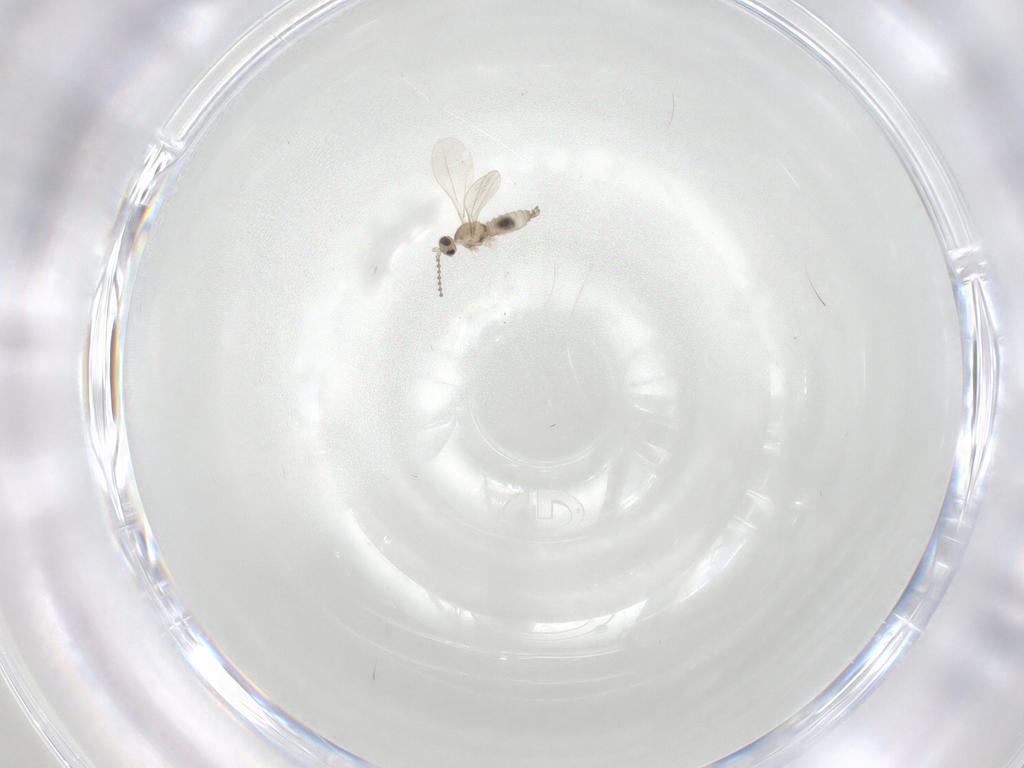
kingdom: Animalia
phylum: Arthropoda
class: Insecta
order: Diptera
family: Cecidomyiidae
